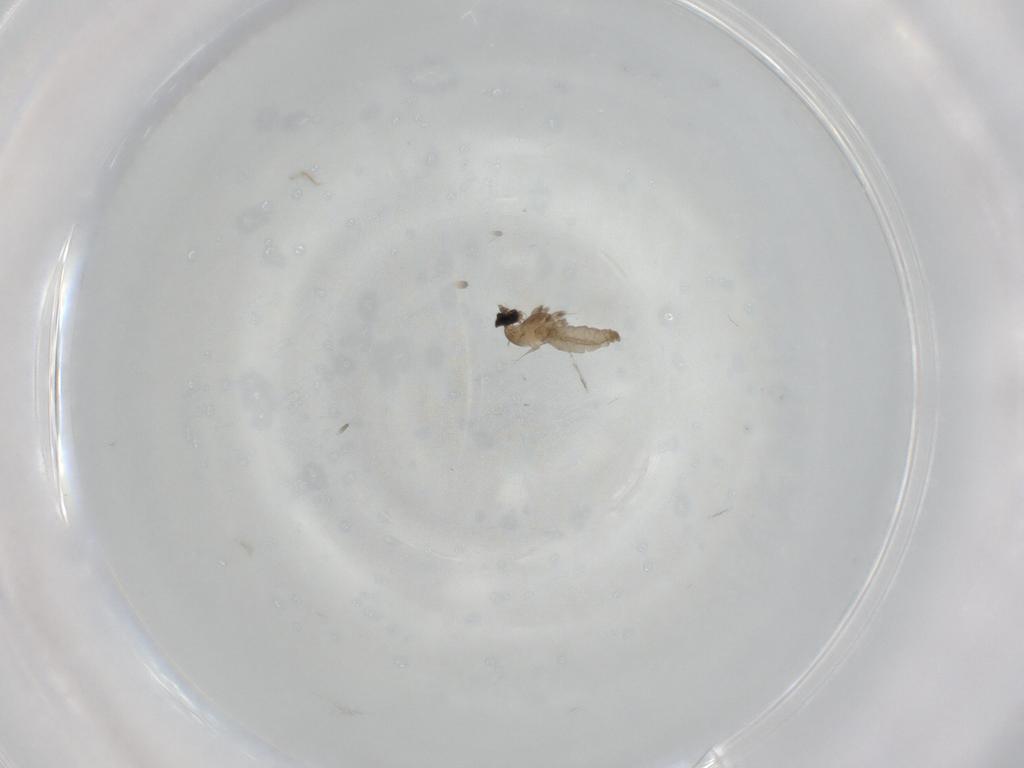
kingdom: Animalia
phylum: Arthropoda
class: Insecta
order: Diptera
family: Cecidomyiidae
